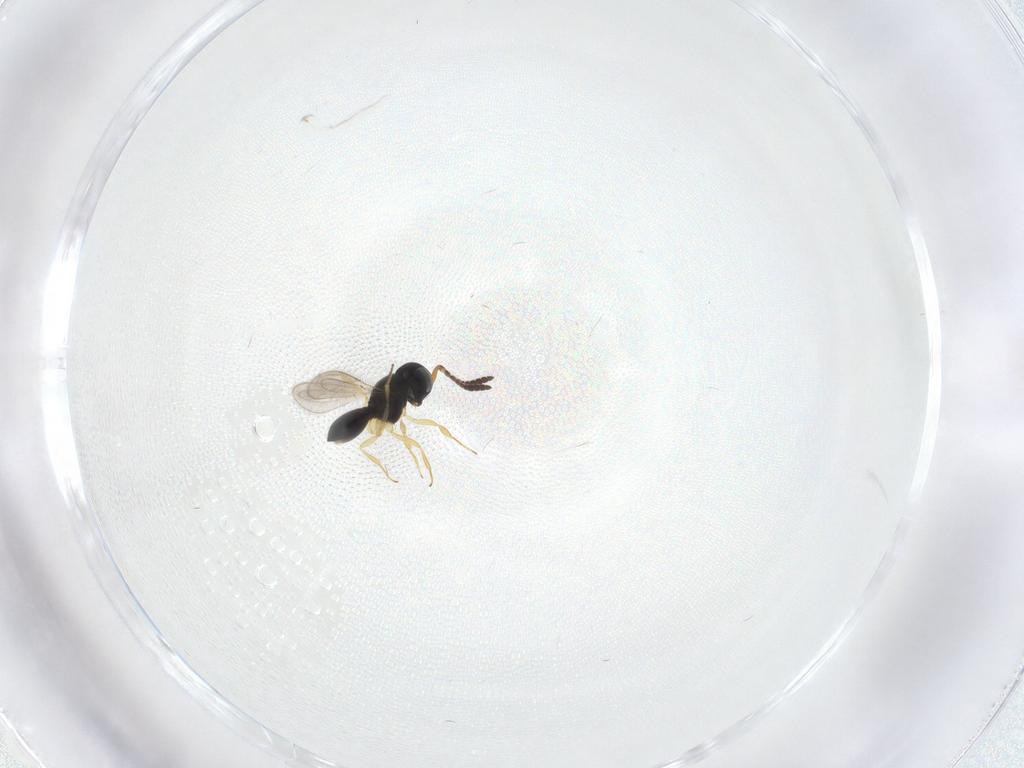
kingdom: Animalia
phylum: Arthropoda
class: Insecta
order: Hymenoptera
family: Scelionidae
